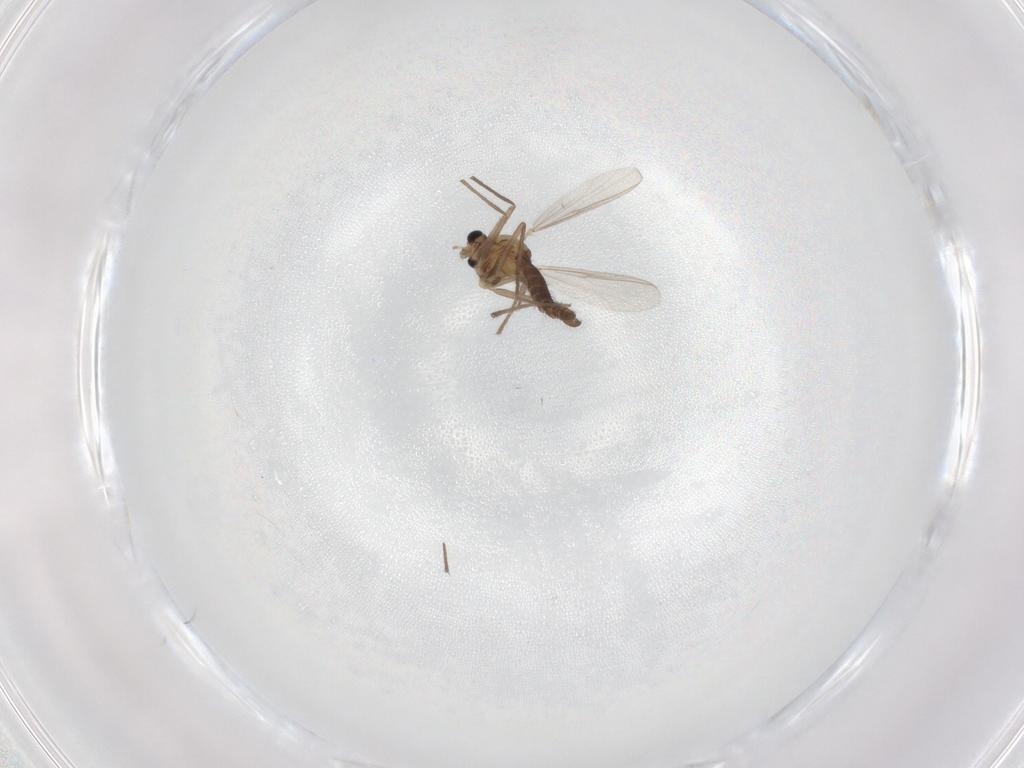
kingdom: Animalia
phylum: Arthropoda
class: Insecta
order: Diptera
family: Chironomidae
